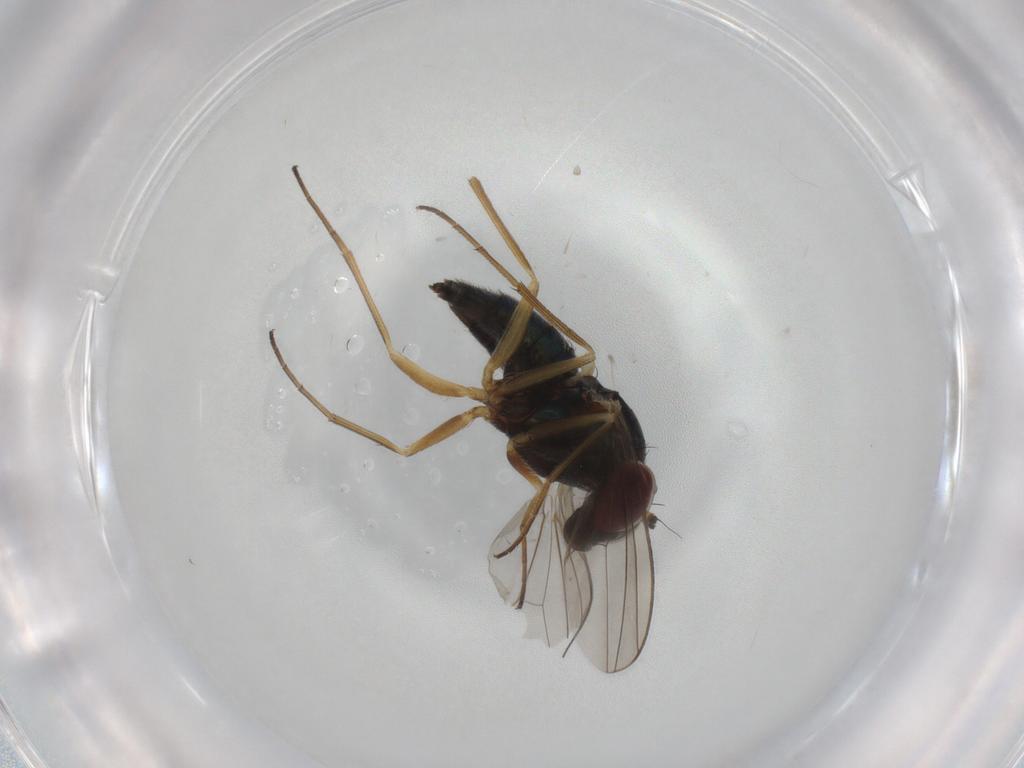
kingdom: Animalia
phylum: Arthropoda
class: Insecta
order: Diptera
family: Dolichopodidae
